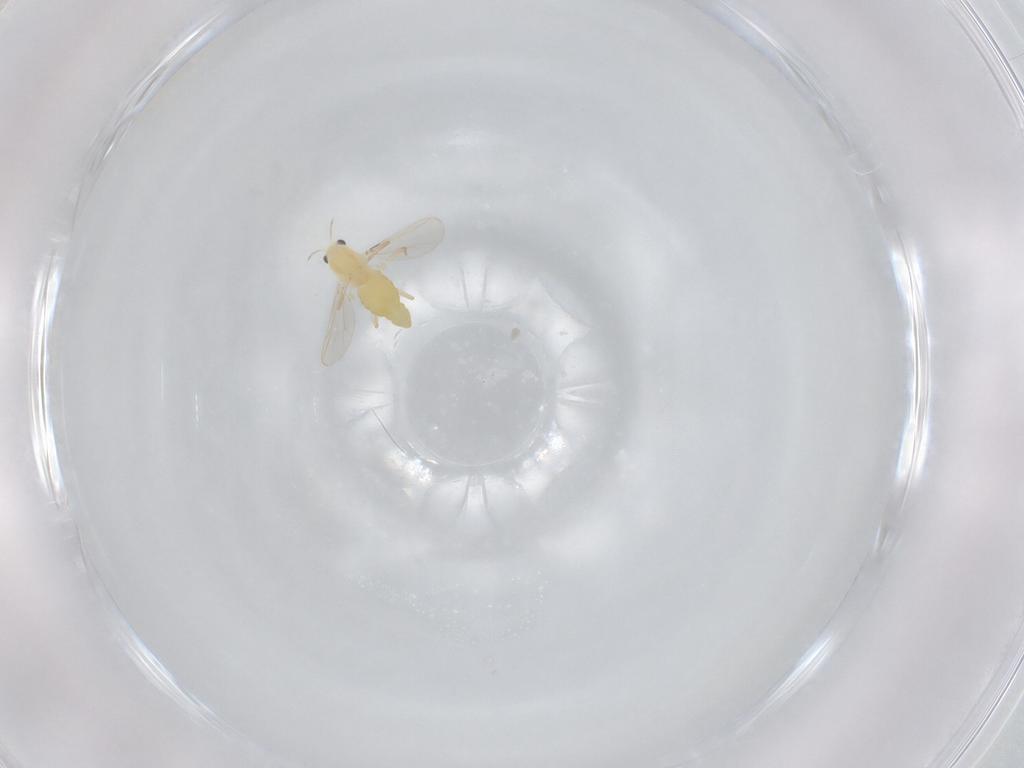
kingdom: Animalia
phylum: Arthropoda
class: Insecta
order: Diptera
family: Chironomidae
